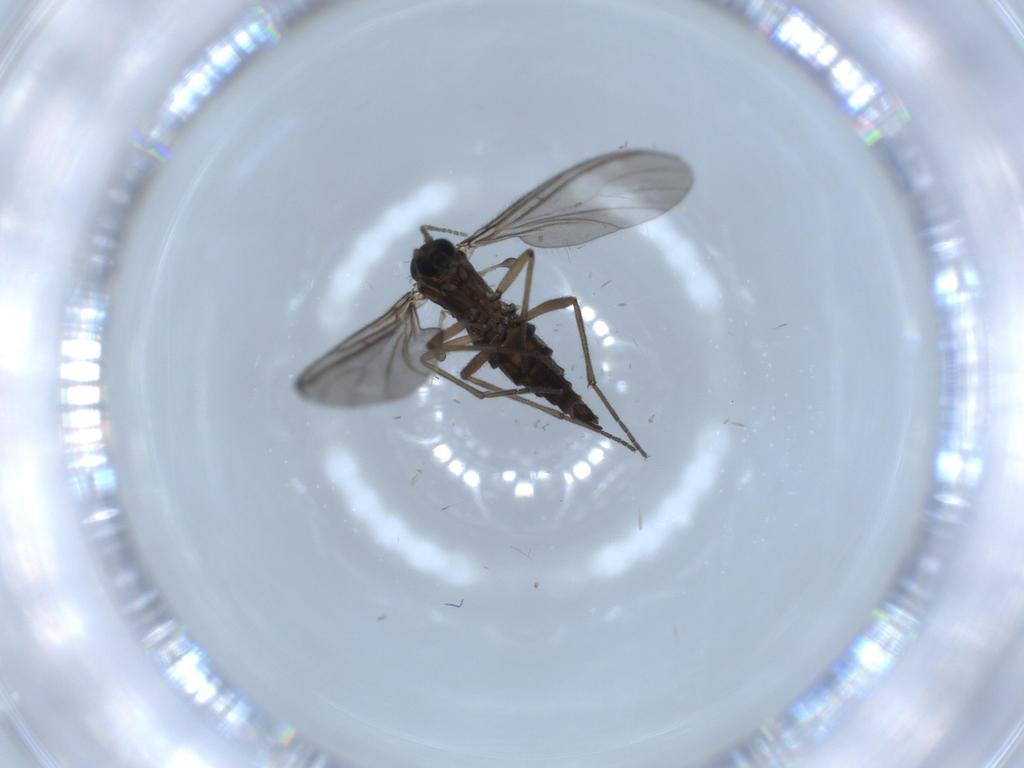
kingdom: Animalia
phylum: Arthropoda
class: Insecta
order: Diptera
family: Sciaridae
